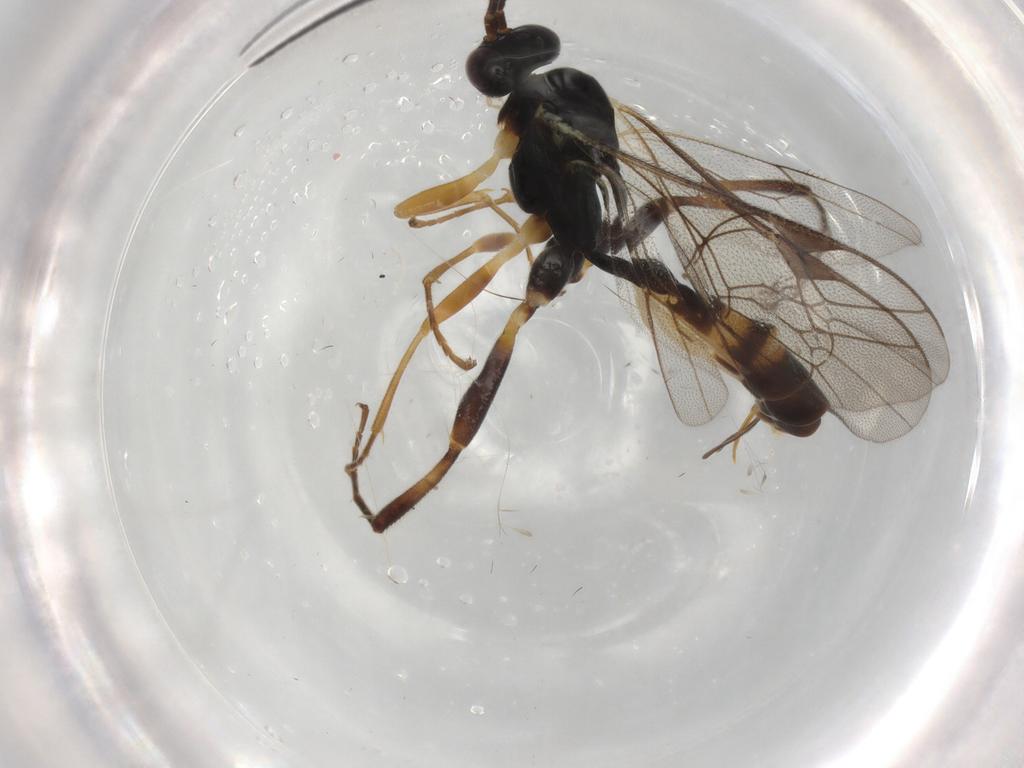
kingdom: Animalia
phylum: Arthropoda
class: Insecta
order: Hymenoptera
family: Ichneumonidae
